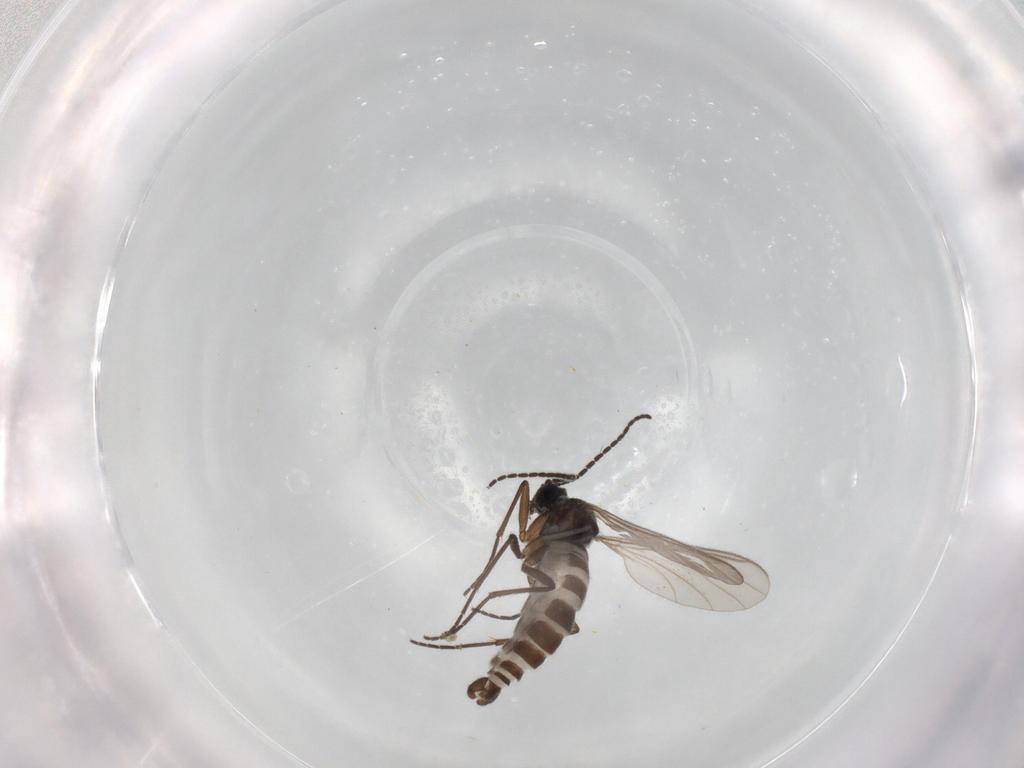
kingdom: Animalia
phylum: Arthropoda
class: Insecta
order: Diptera
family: Sciaridae
